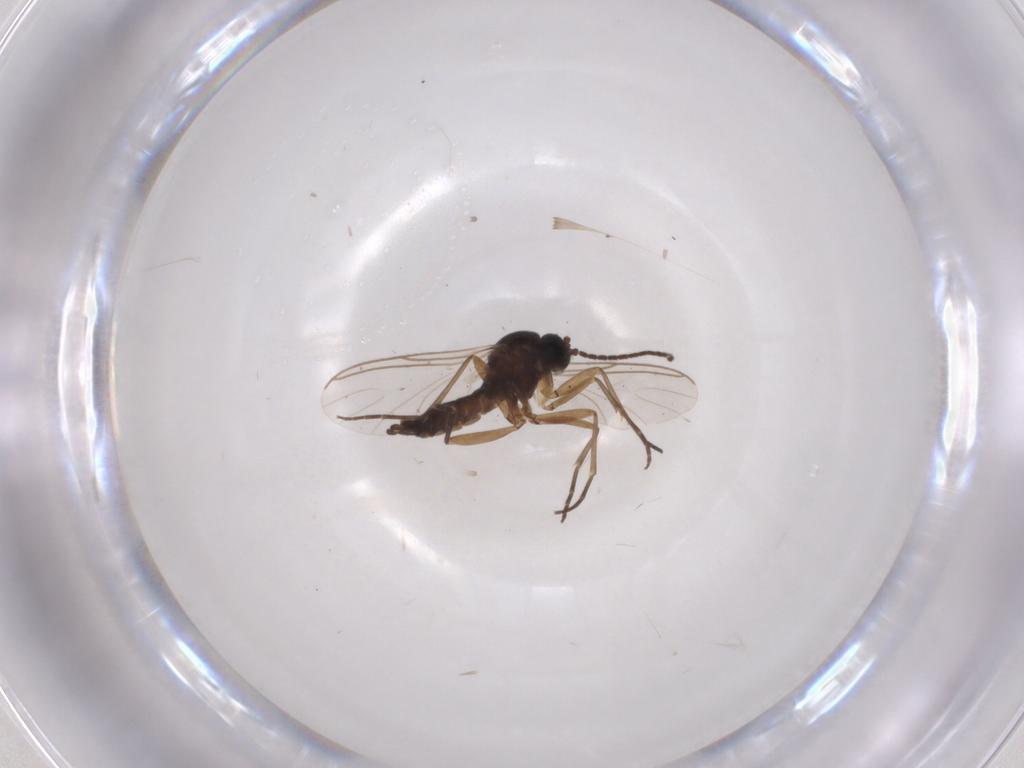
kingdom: Animalia
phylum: Arthropoda
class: Insecta
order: Diptera
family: Sciaridae
